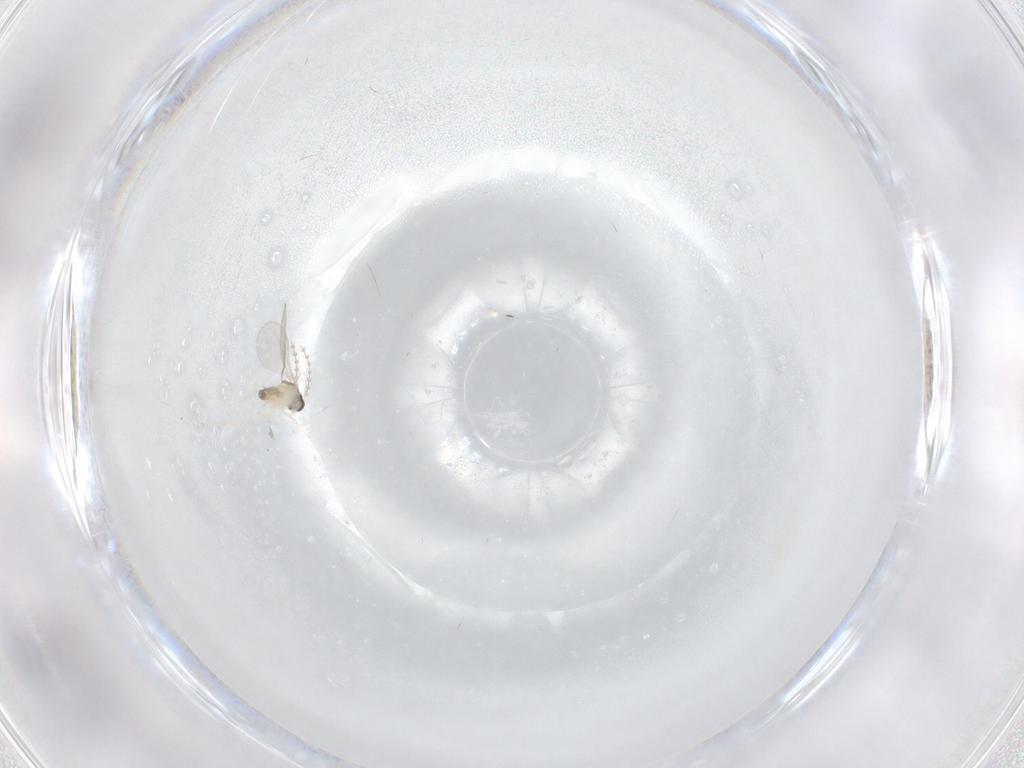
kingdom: Animalia
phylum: Arthropoda
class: Insecta
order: Diptera
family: Cecidomyiidae
